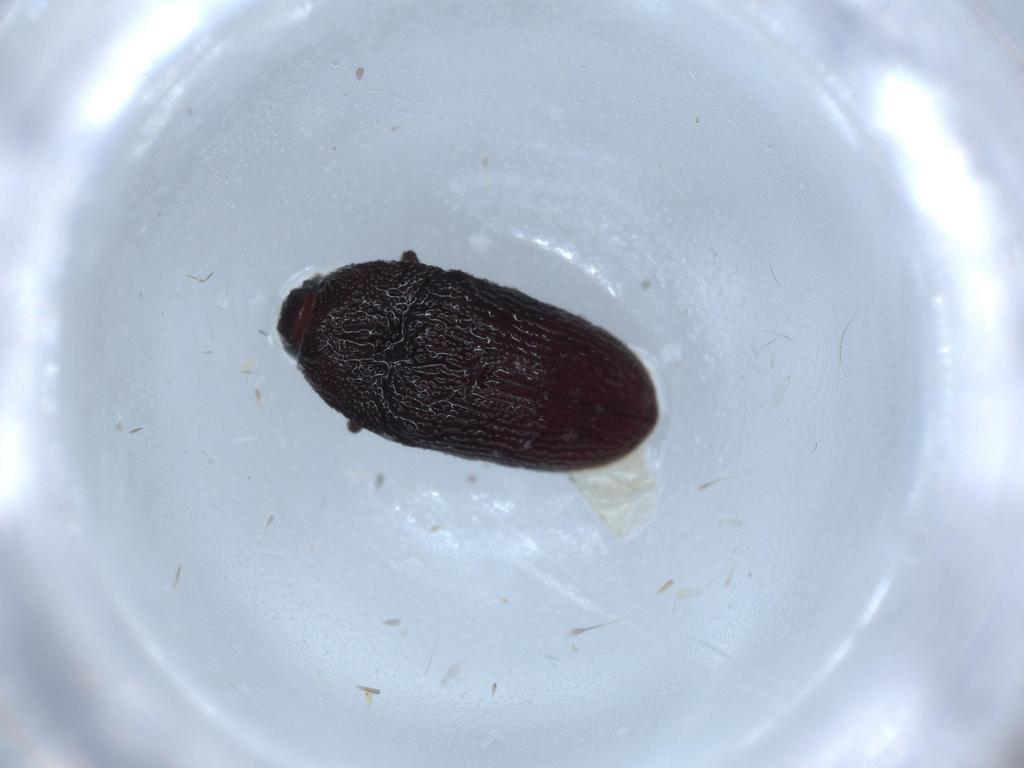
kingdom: Animalia
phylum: Arthropoda
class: Insecta
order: Coleoptera
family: Throscidae
